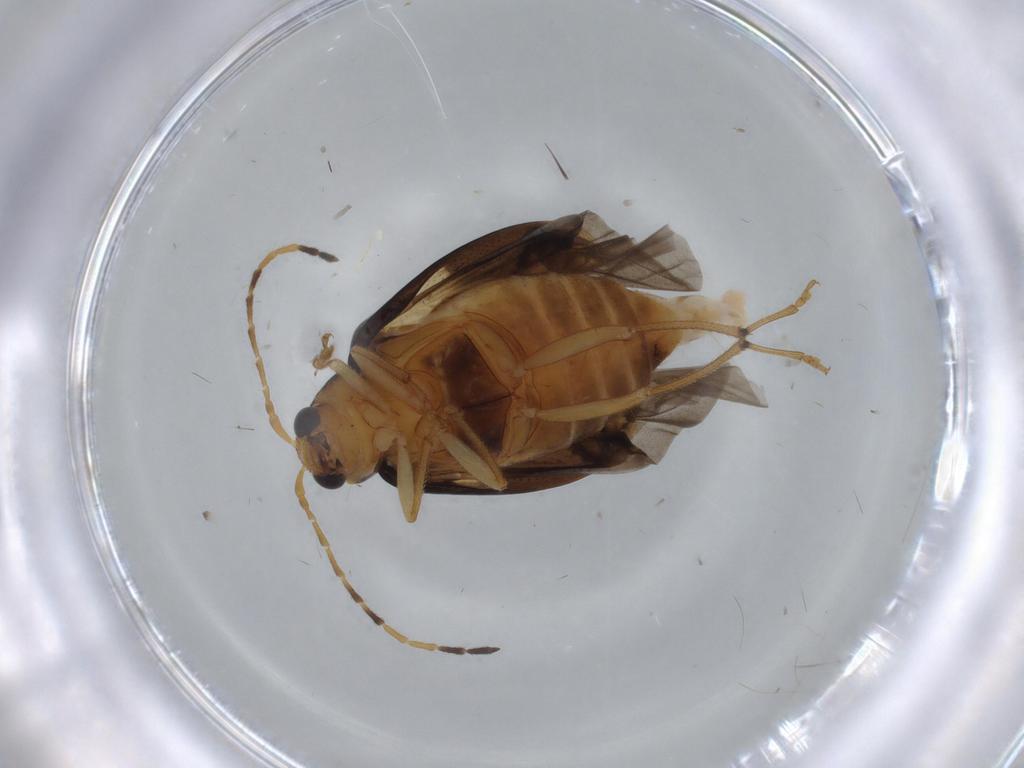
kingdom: Animalia
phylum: Arthropoda
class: Insecta
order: Coleoptera
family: Chrysomelidae
